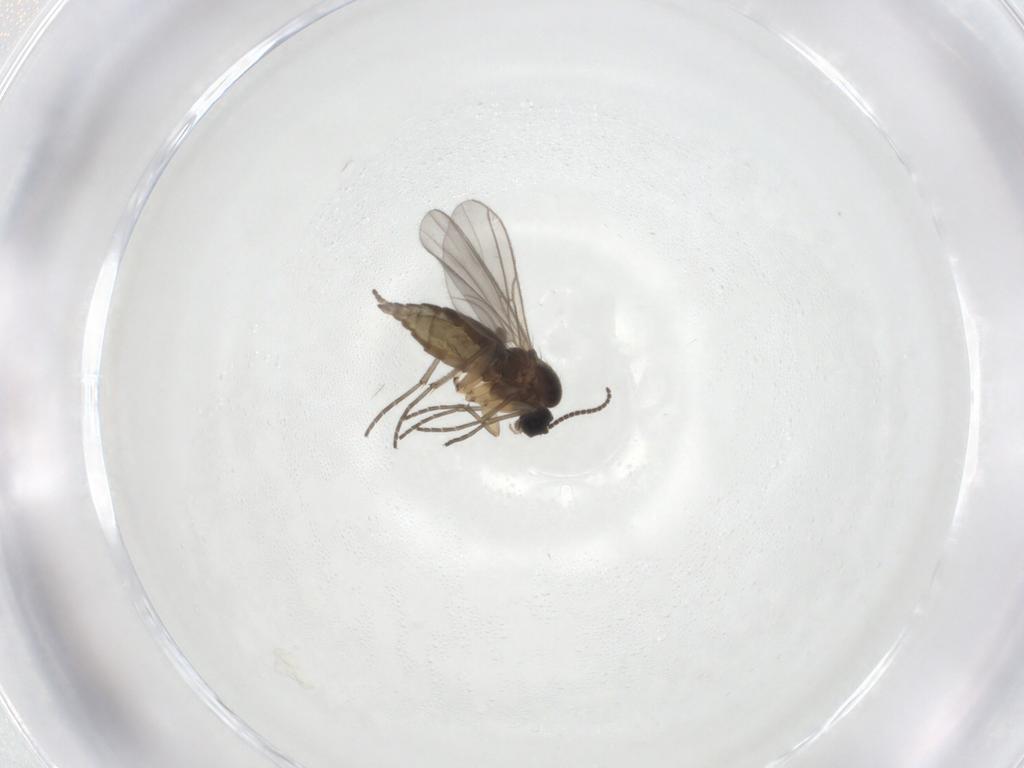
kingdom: Animalia
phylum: Arthropoda
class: Insecta
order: Diptera
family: Sciaridae
